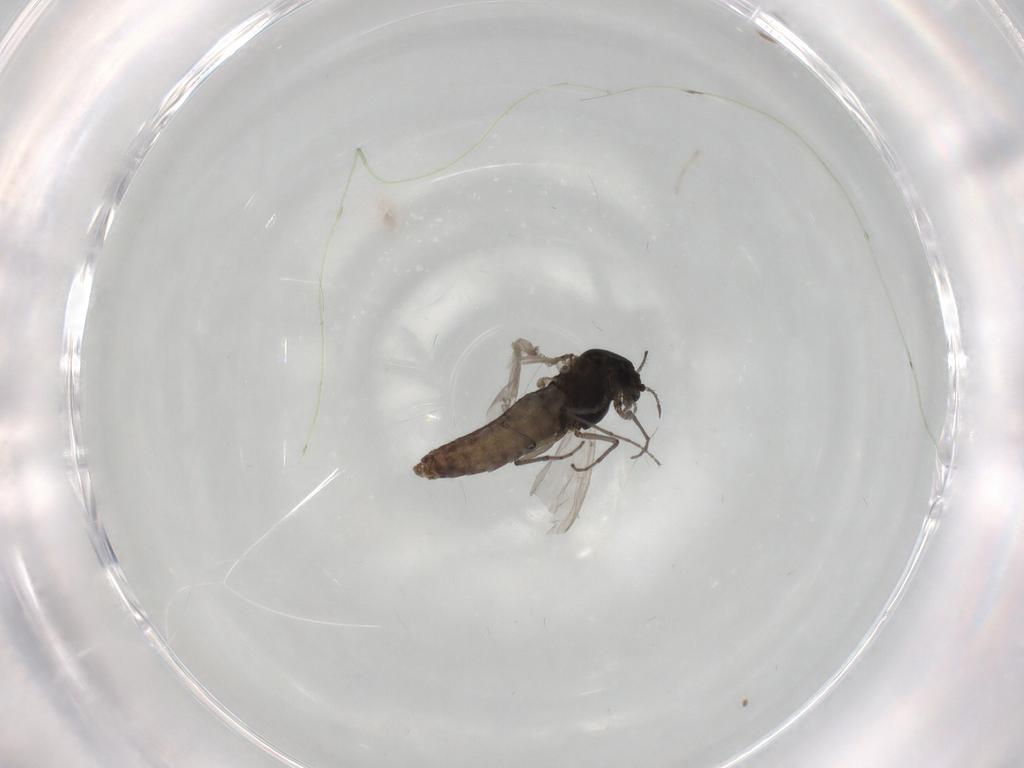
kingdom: Animalia
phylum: Arthropoda
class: Insecta
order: Diptera
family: Chironomidae
